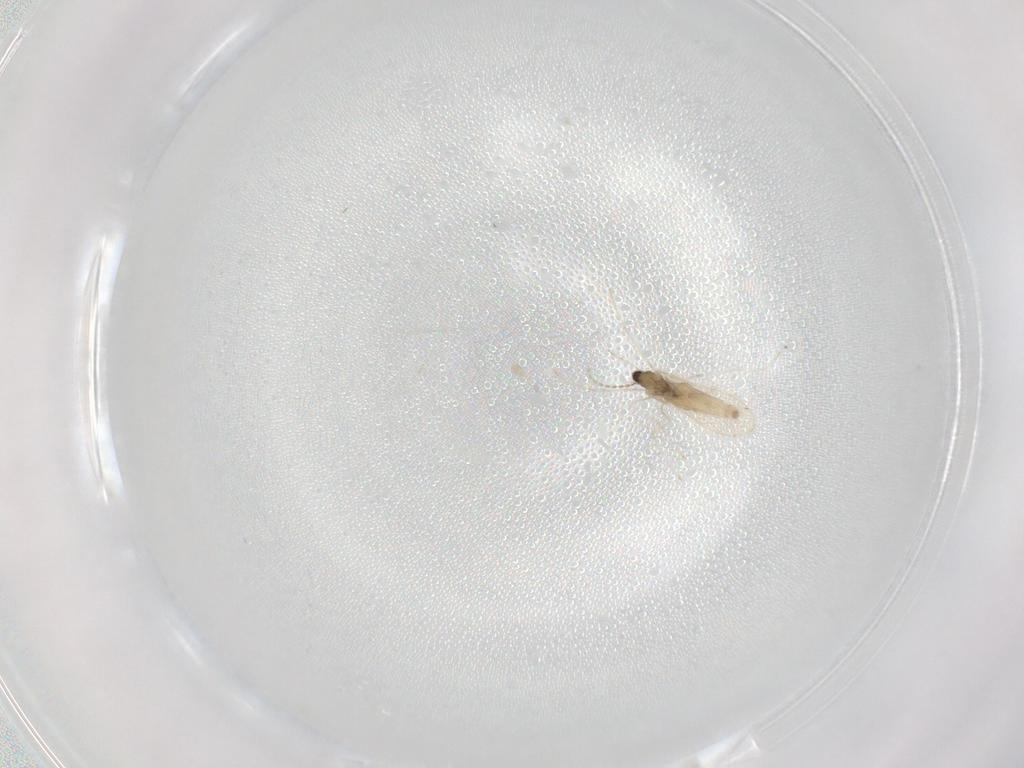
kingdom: Animalia
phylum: Arthropoda
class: Insecta
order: Diptera
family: Cecidomyiidae
